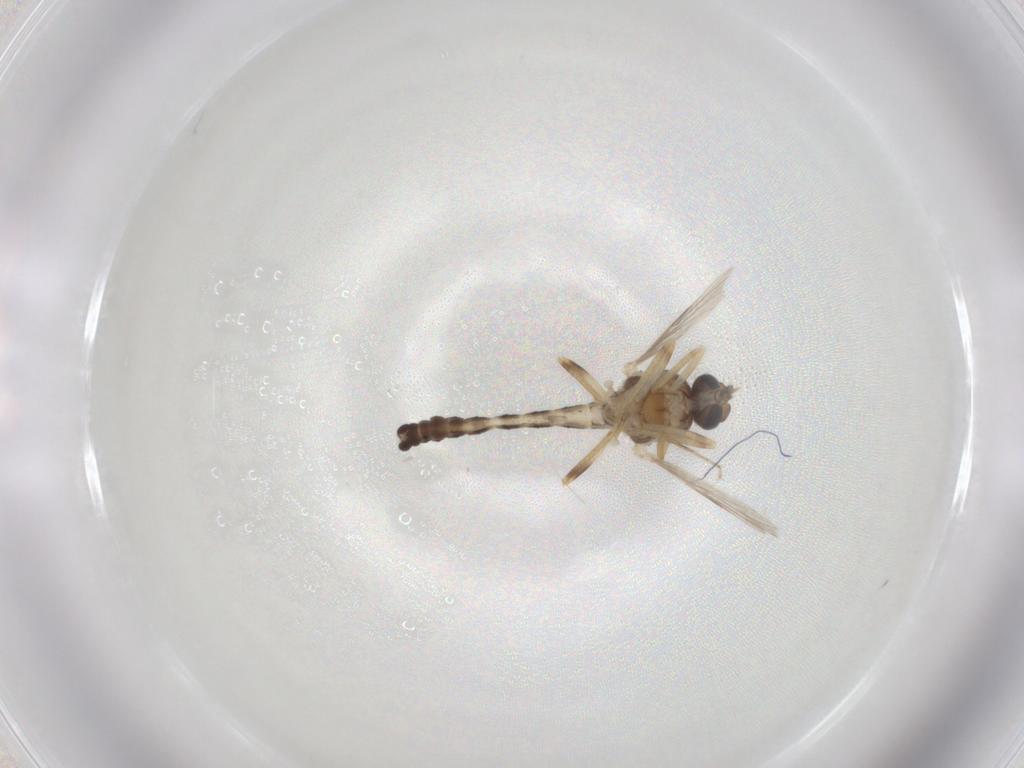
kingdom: Animalia
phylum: Arthropoda
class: Insecta
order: Diptera
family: Ceratopogonidae
